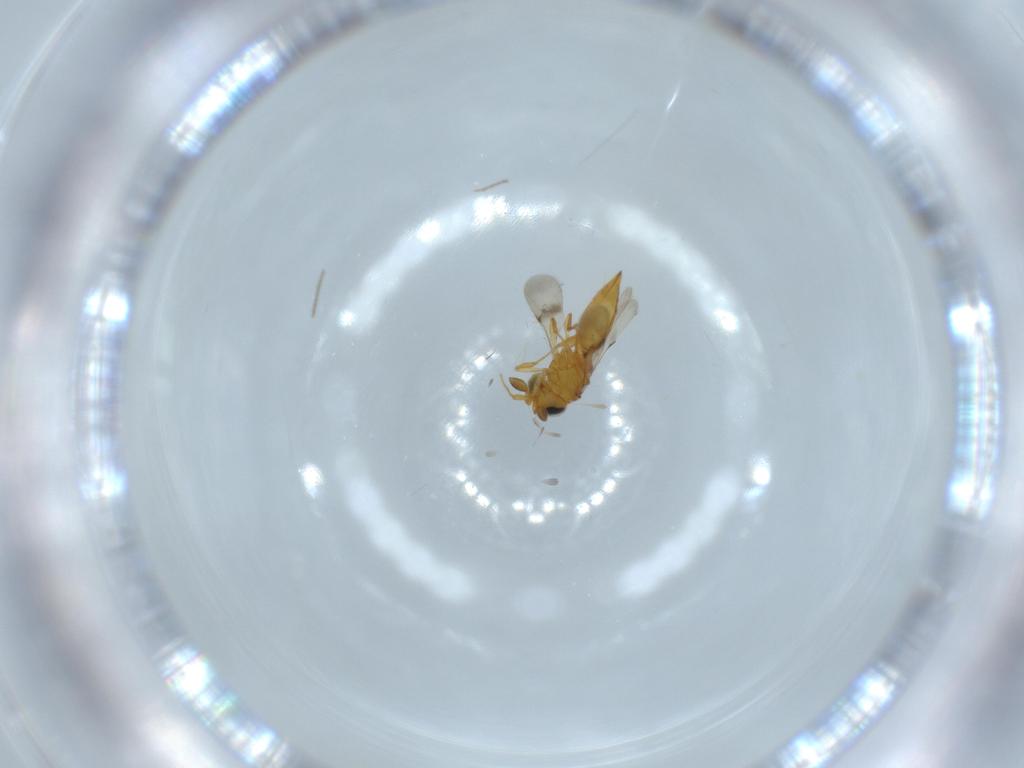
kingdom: Animalia
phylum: Arthropoda
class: Insecta
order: Hymenoptera
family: Scelionidae
